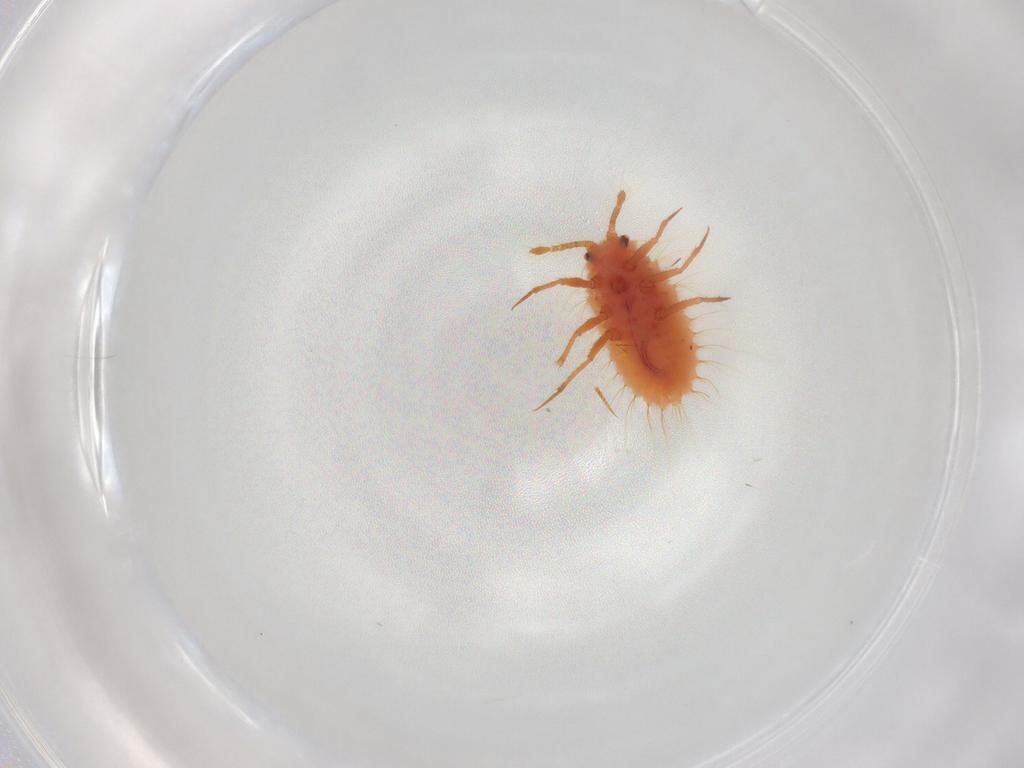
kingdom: Animalia
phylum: Arthropoda
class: Insecta
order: Hemiptera
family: Coccoidea_incertae_sedis
